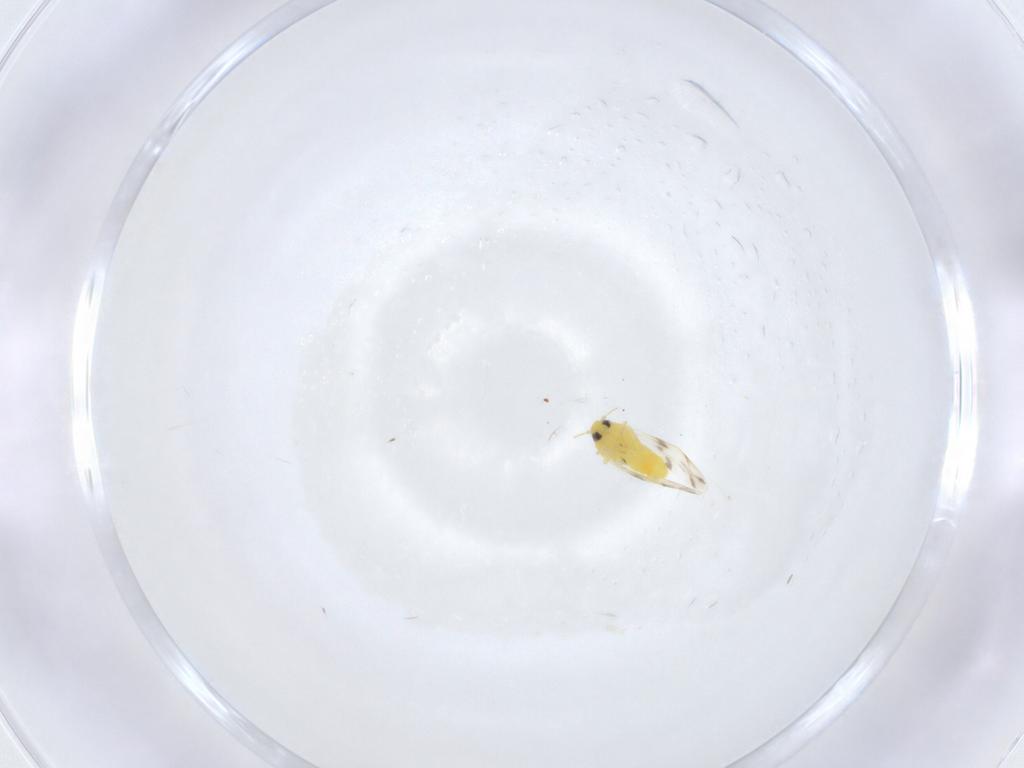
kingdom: Animalia
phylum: Arthropoda
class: Insecta
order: Hemiptera
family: Aleyrodidae
